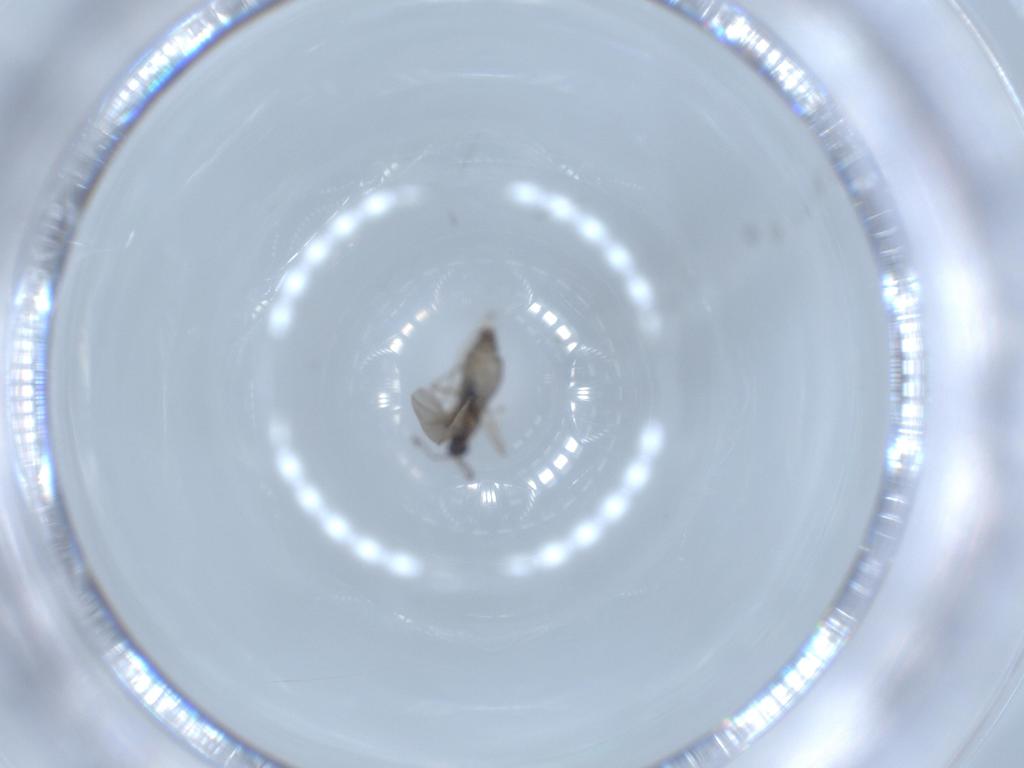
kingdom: Animalia
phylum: Arthropoda
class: Insecta
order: Diptera
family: Cecidomyiidae
